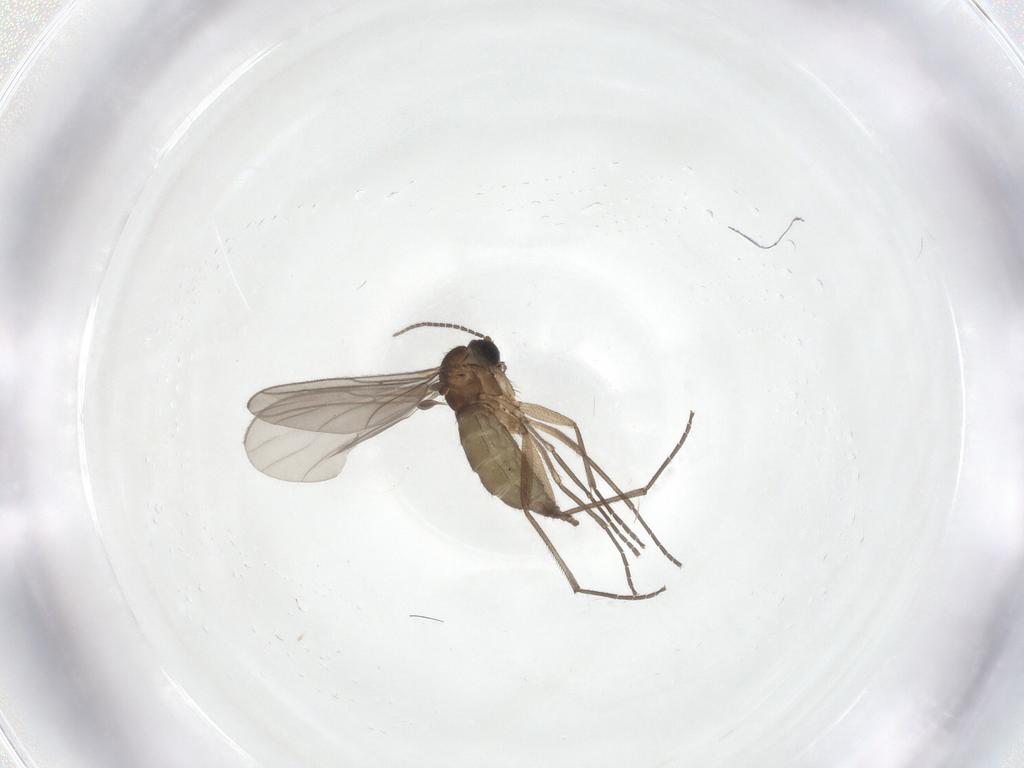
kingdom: Animalia
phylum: Arthropoda
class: Insecta
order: Diptera
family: Sciaridae
